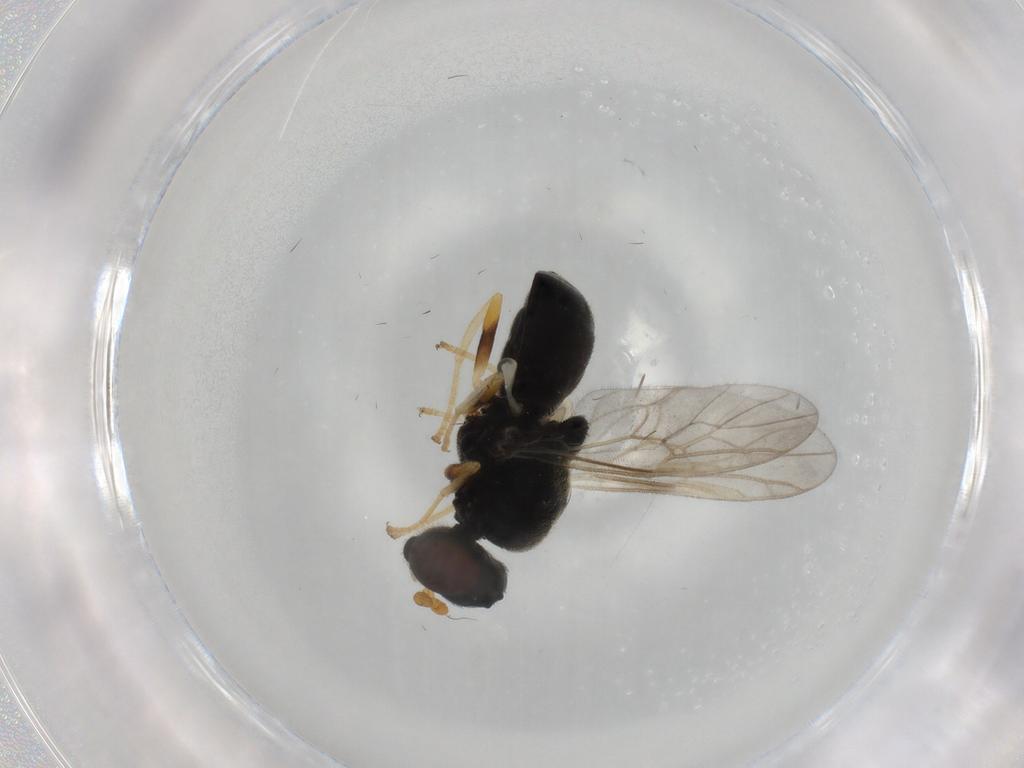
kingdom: Animalia
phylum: Arthropoda
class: Insecta
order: Diptera
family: Stratiomyidae
